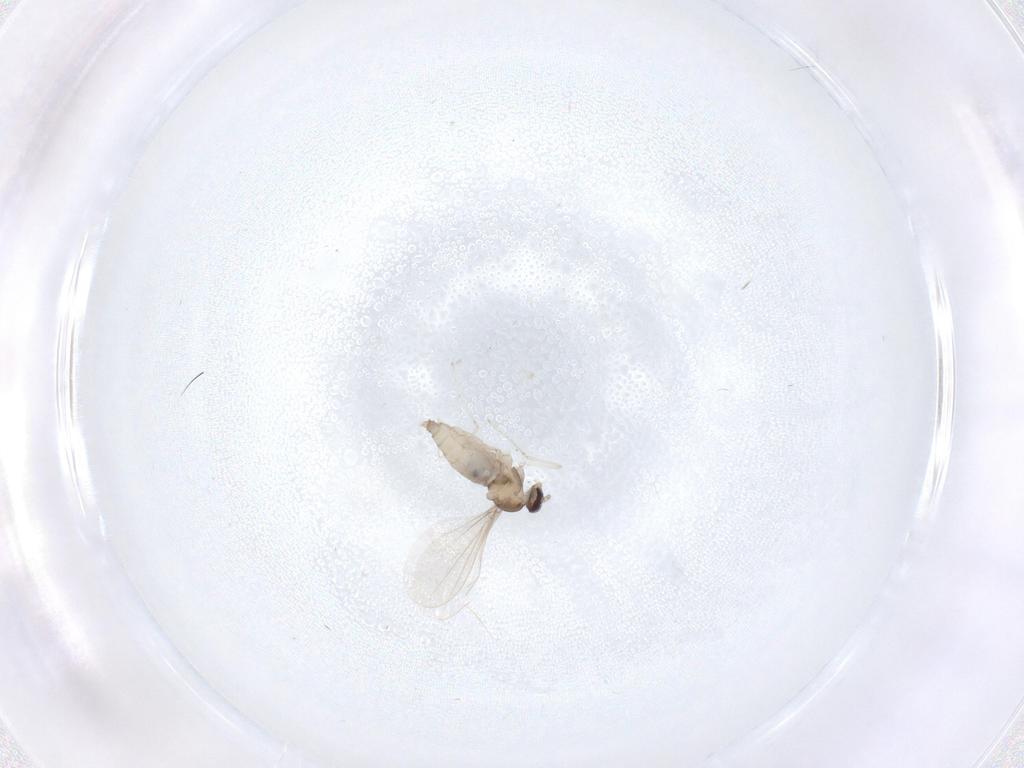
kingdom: Animalia
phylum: Arthropoda
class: Insecta
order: Diptera
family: Cecidomyiidae
